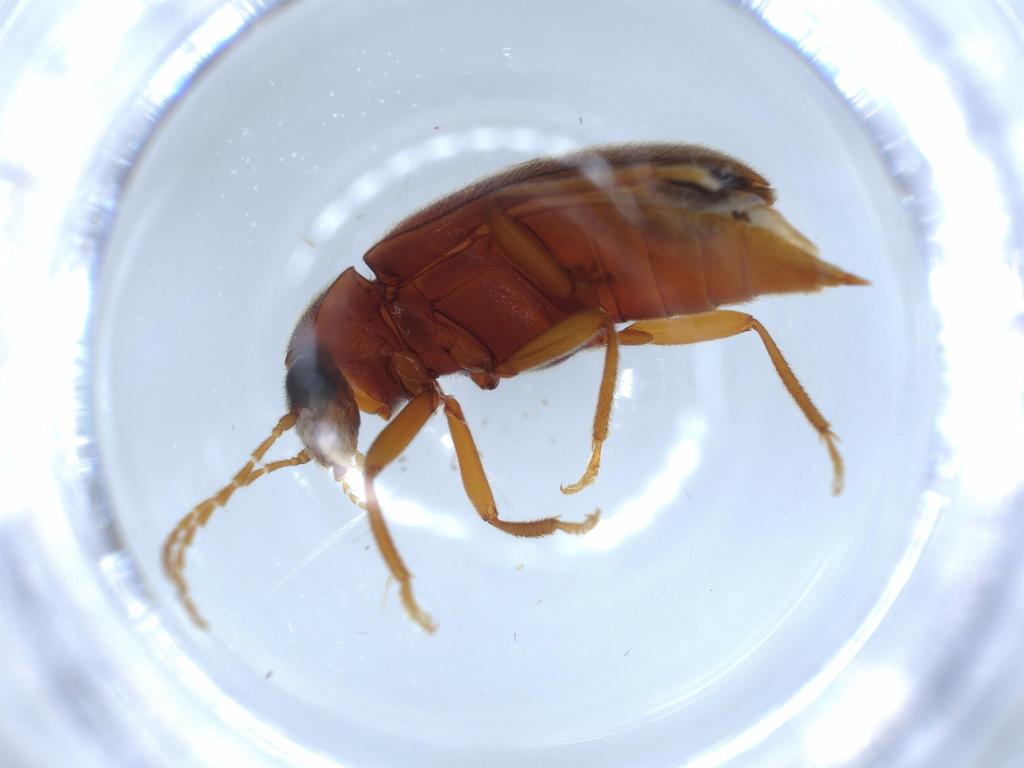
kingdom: Animalia
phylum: Arthropoda
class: Insecta
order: Coleoptera
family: Ptilodactylidae
